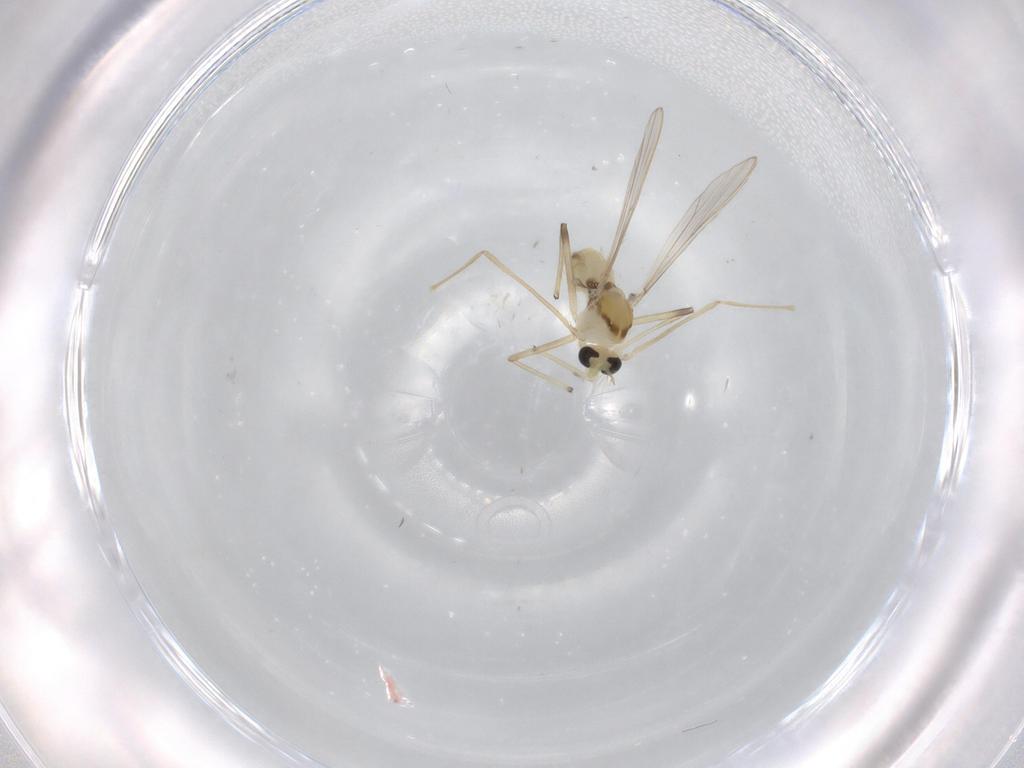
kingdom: Animalia
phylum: Arthropoda
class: Insecta
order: Diptera
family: Chironomidae
